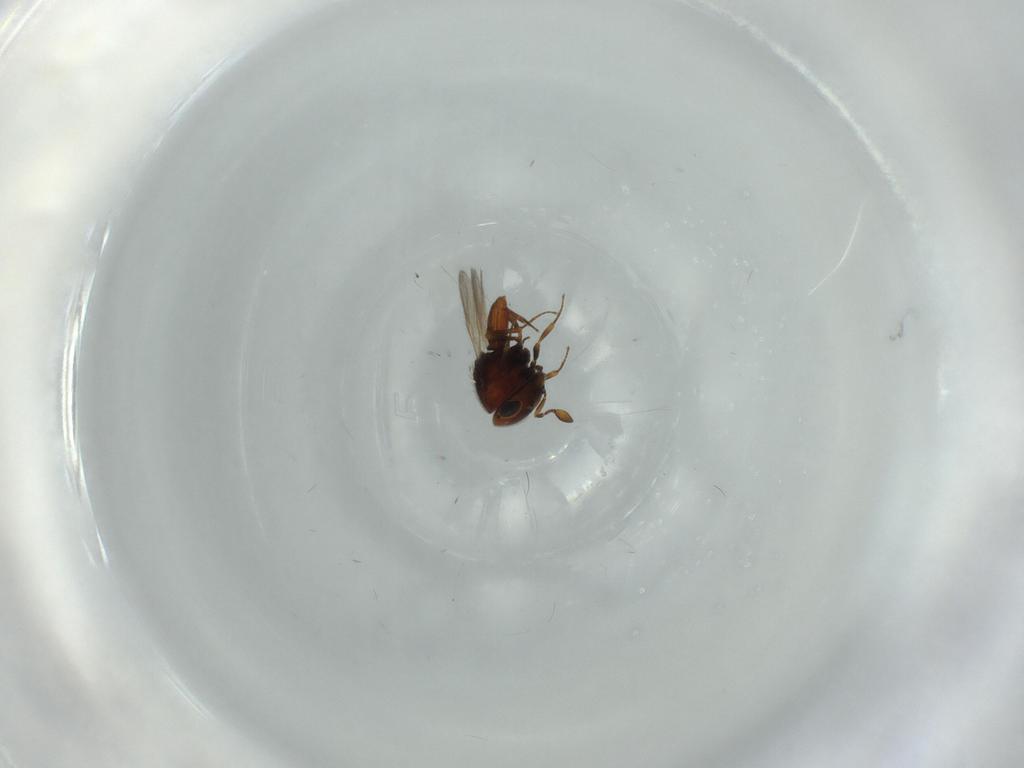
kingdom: Animalia
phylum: Arthropoda
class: Insecta
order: Hymenoptera
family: Scelionidae
